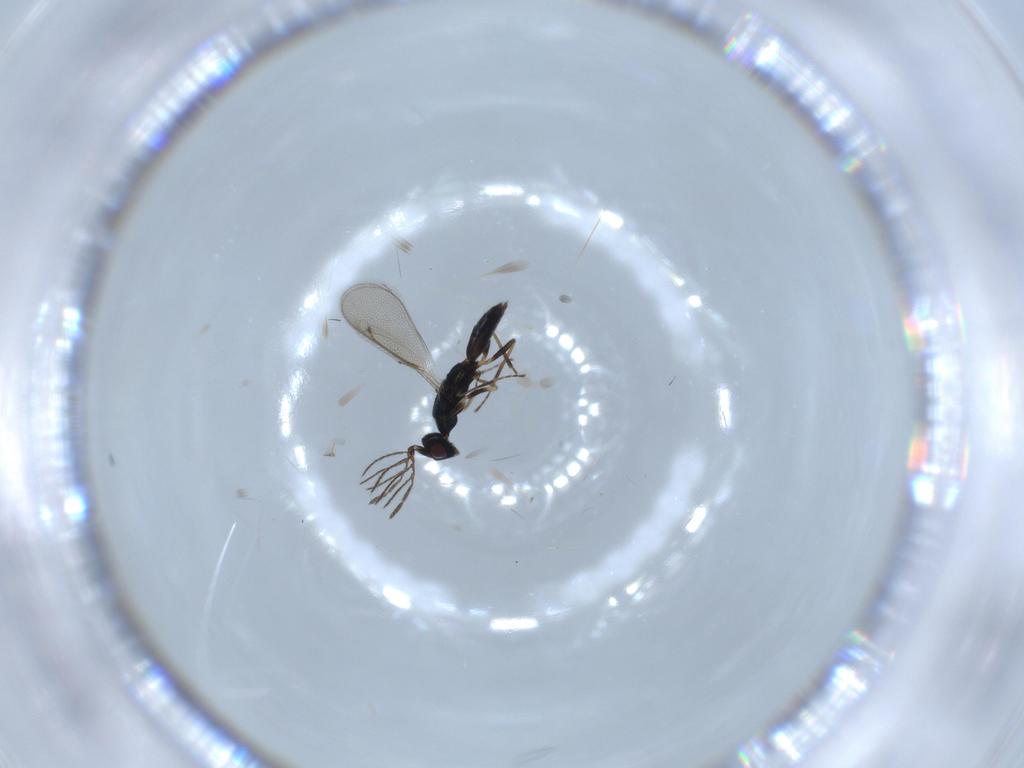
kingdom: Animalia
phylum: Arthropoda
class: Insecta
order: Hymenoptera
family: Eulophidae
